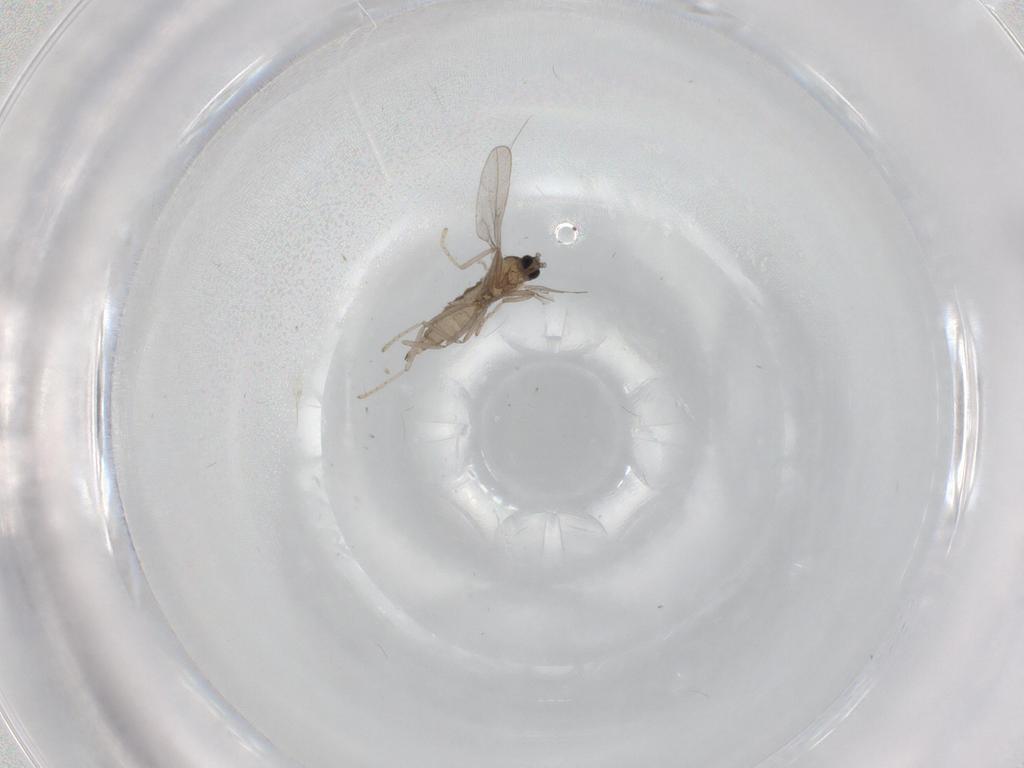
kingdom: Animalia
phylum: Arthropoda
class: Insecta
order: Diptera
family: Cecidomyiidae
